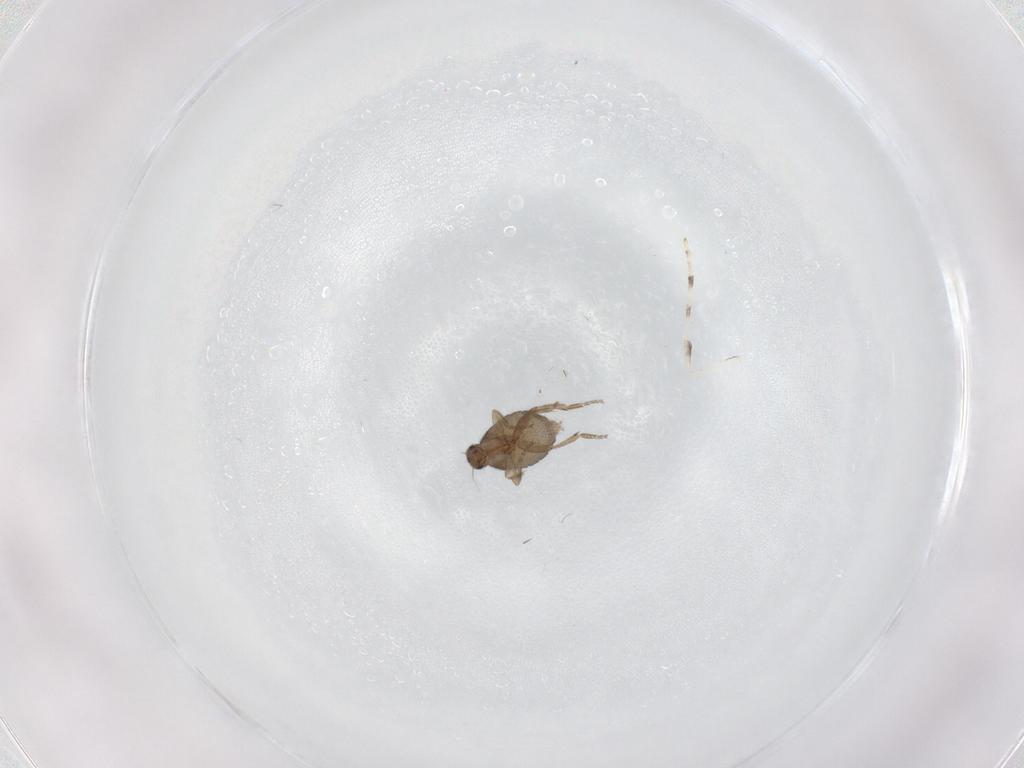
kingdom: Animalia
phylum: Arthropoda
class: Insecta
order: Diptera
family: Phoridae
